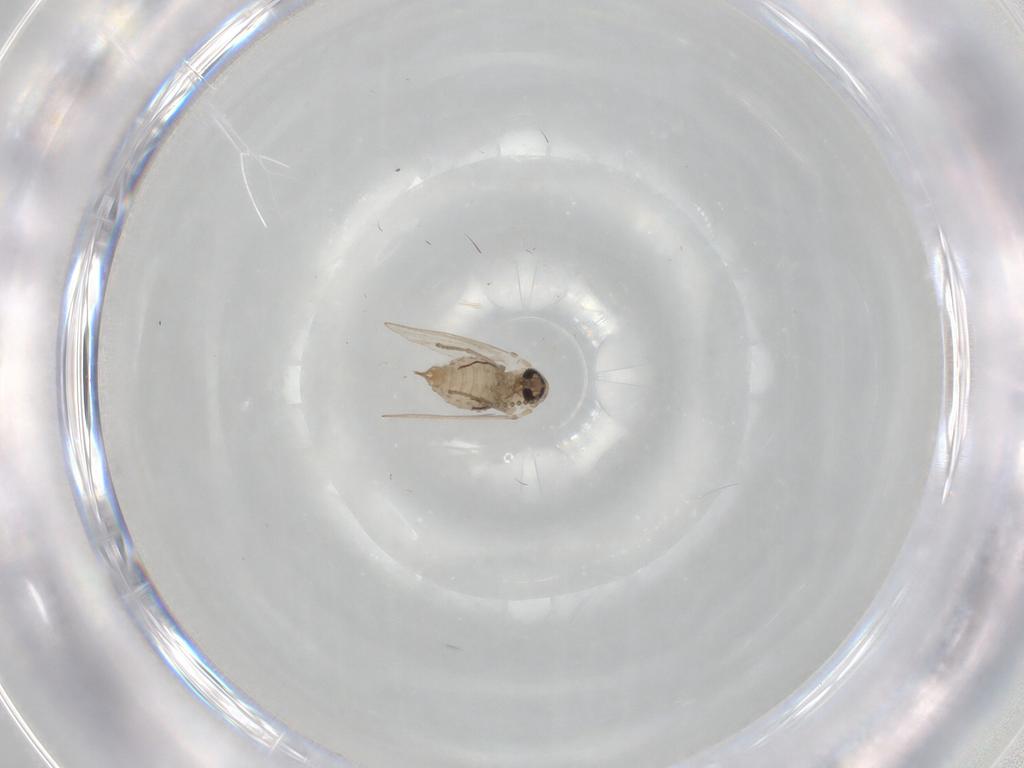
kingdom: Animalia
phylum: Arthropoda
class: Insecta
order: Diptera
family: Psychodidae
